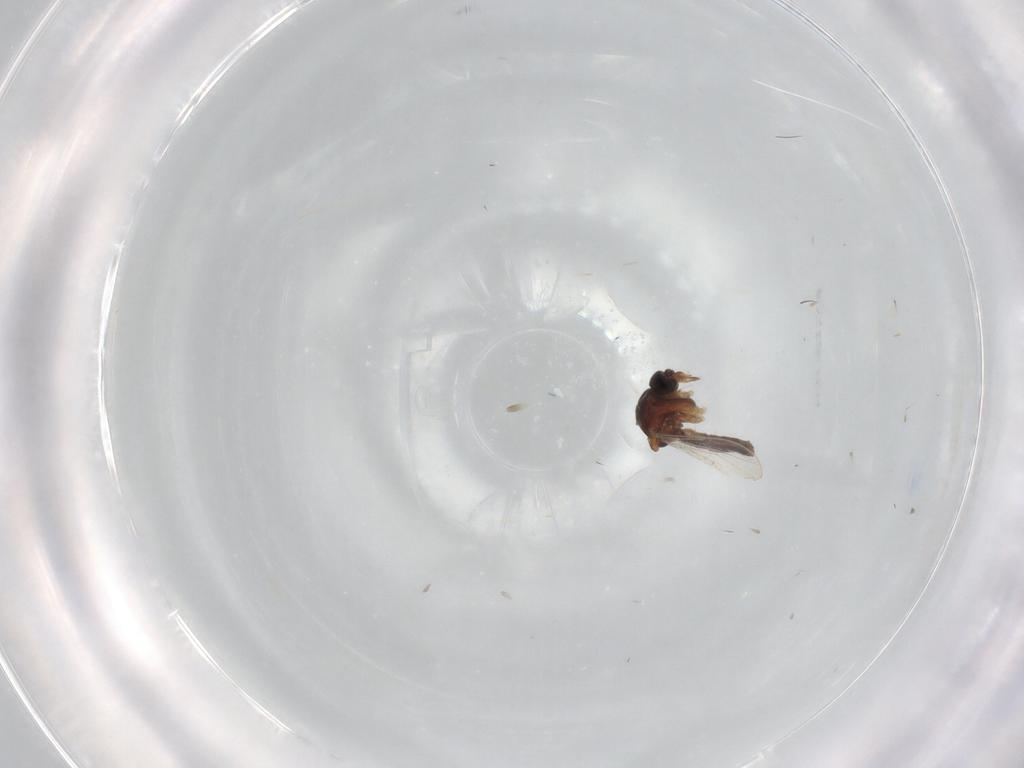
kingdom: Animalia
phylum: Arthropoda
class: Insecta
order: Diptera
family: Ceratopogonidae
